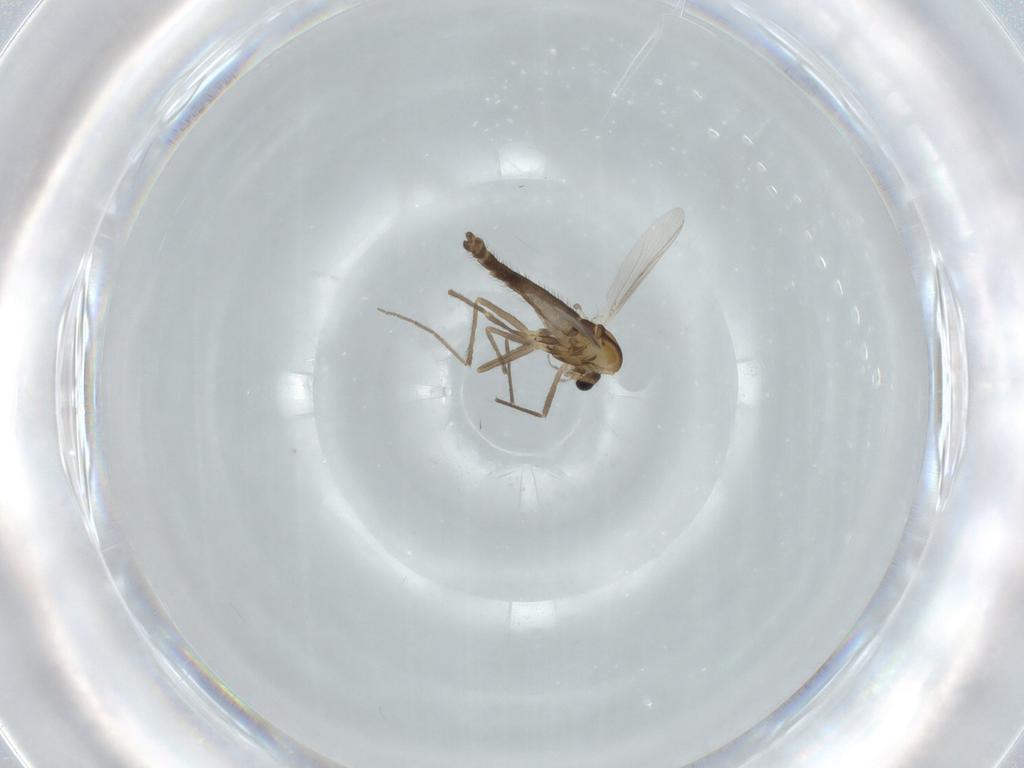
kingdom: Animalia
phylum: Arthropoda
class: Insecta
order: Diptera
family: Chironomidae
